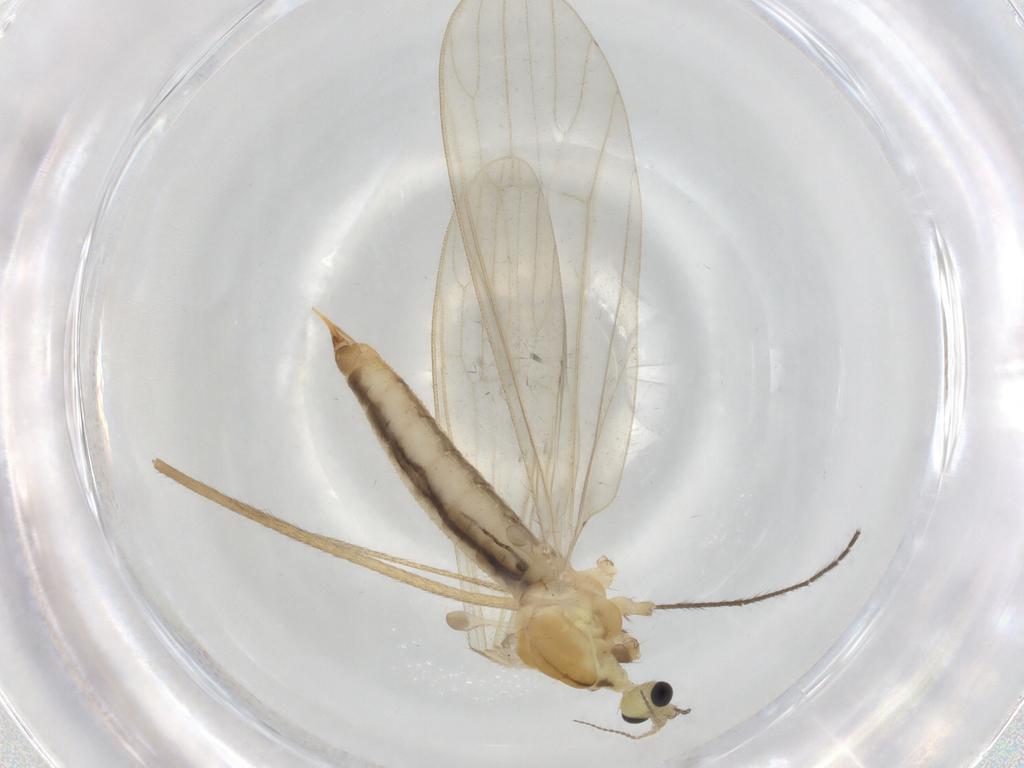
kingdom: Animalia
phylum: Arthropoda
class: Insecta
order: Diptera
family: Limoniidae
